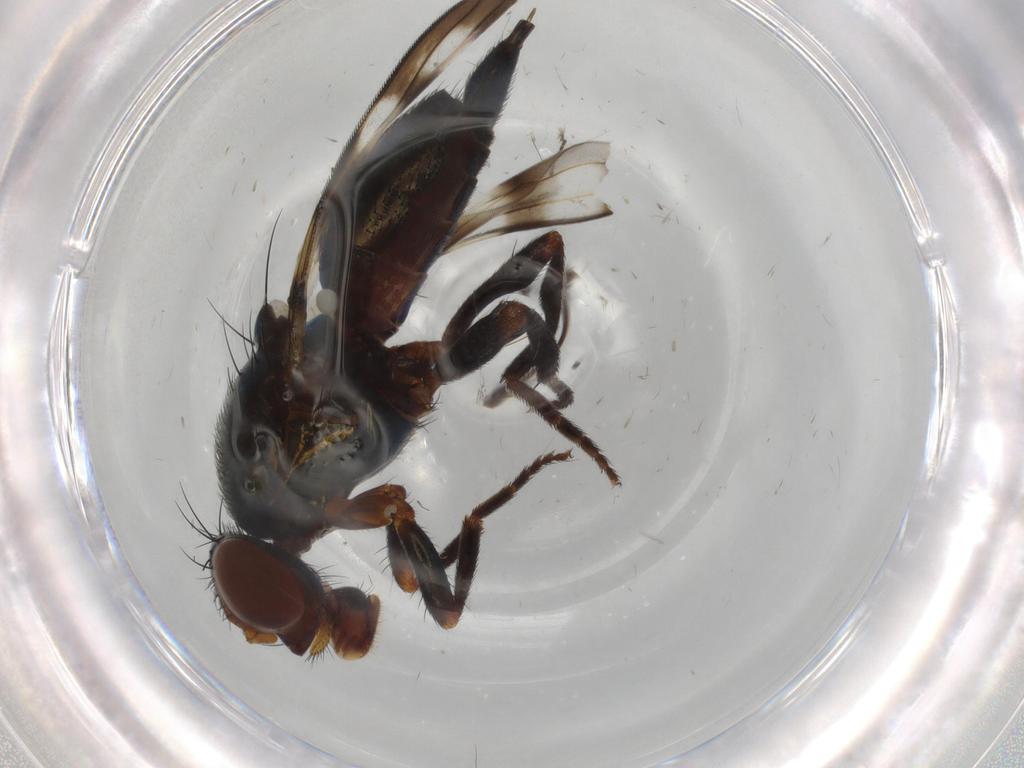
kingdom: Animalia
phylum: Arthropoda
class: Insecta
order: Diptera
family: Ulidiidae
